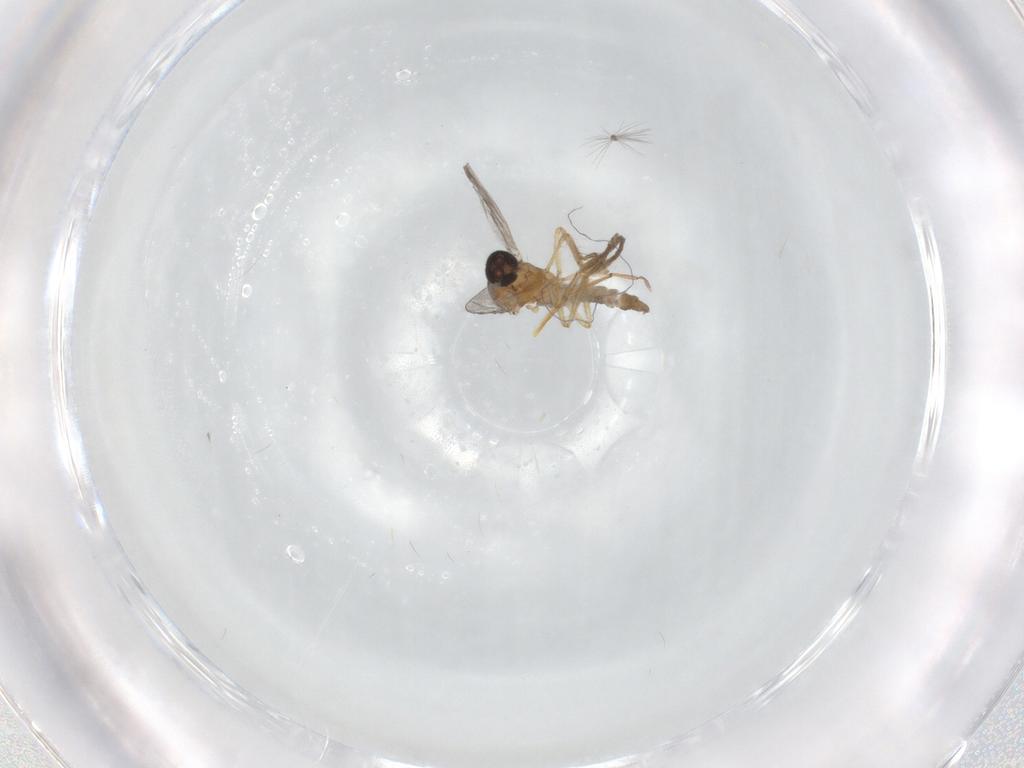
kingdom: Animalia
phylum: Arthropoda
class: Insecta
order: Diptera
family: Ceratopogonidae
